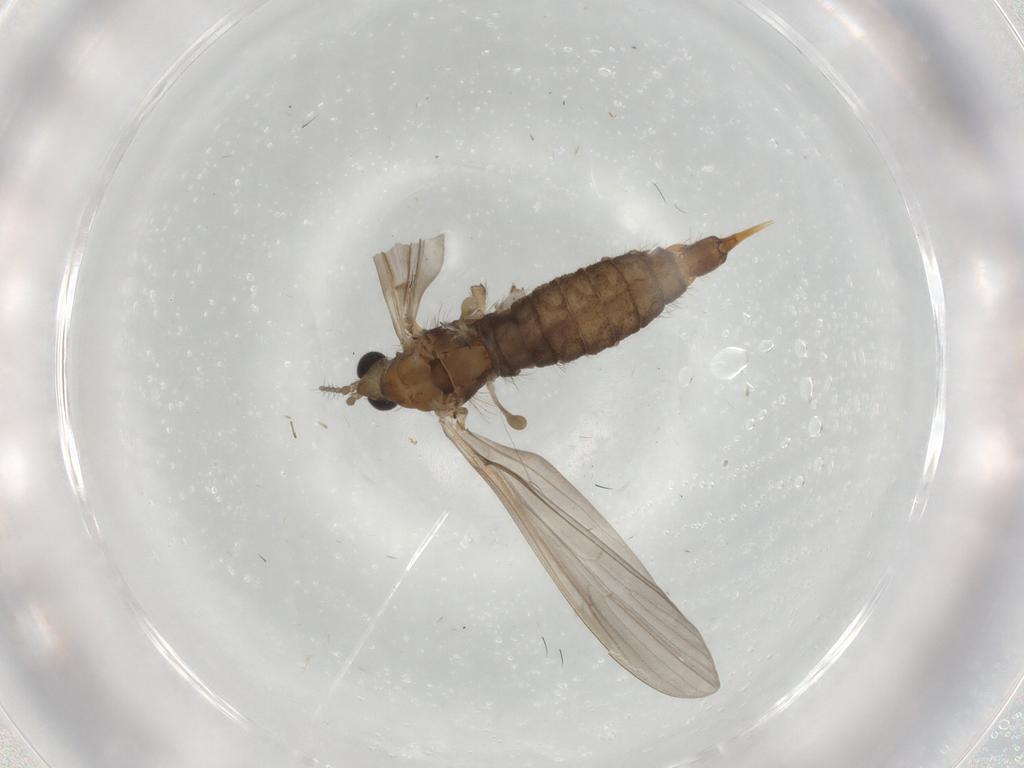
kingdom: Animalia
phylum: Arthropoda
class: Insecta
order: Diptera
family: Limoniidae
